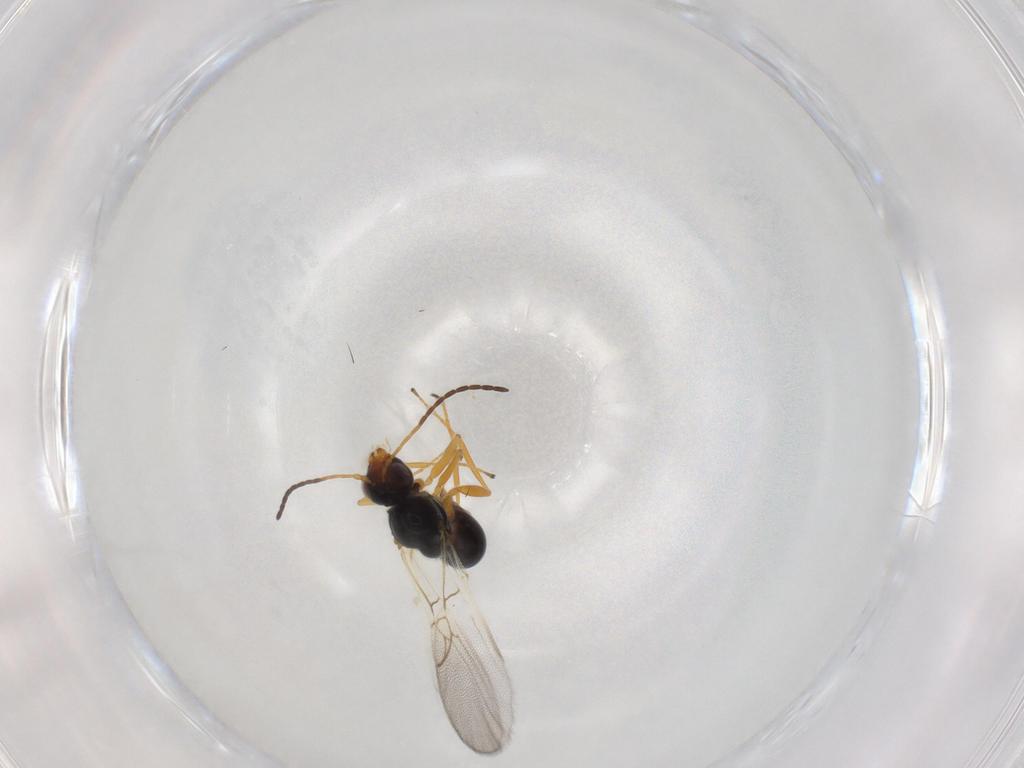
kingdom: Animalia
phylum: Arthropoda
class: Insecta
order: Hymenoptera
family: Figitidae
